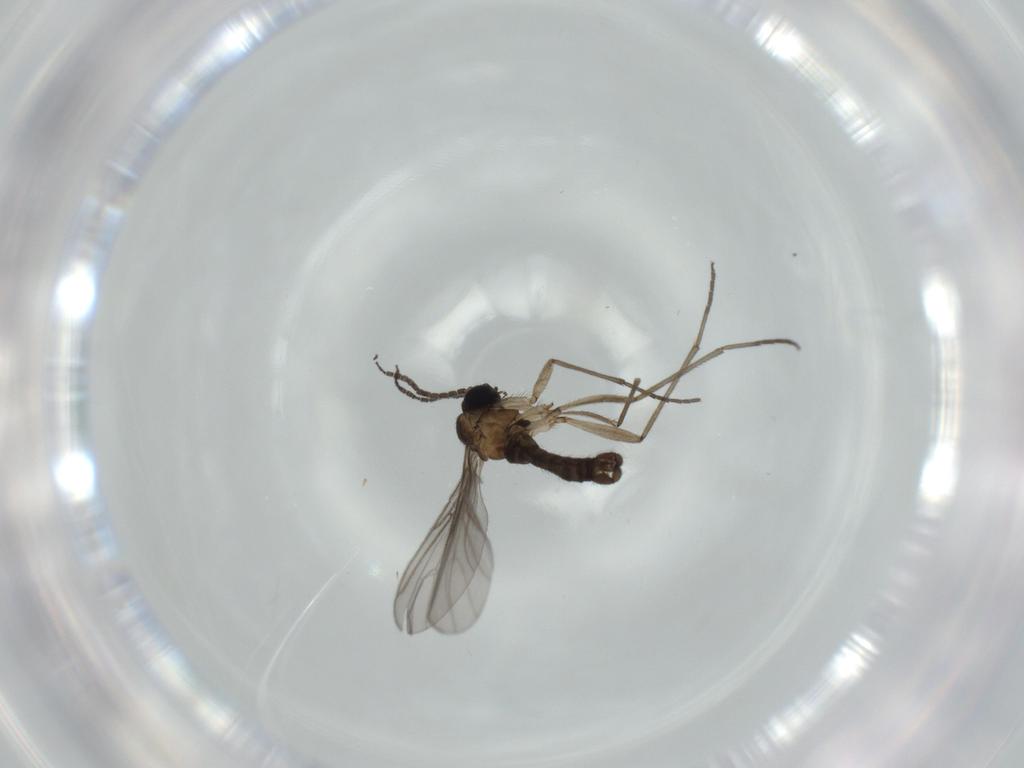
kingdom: Animalia
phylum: Arthropoda
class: Insecta
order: Diptera
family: Sciaridae
